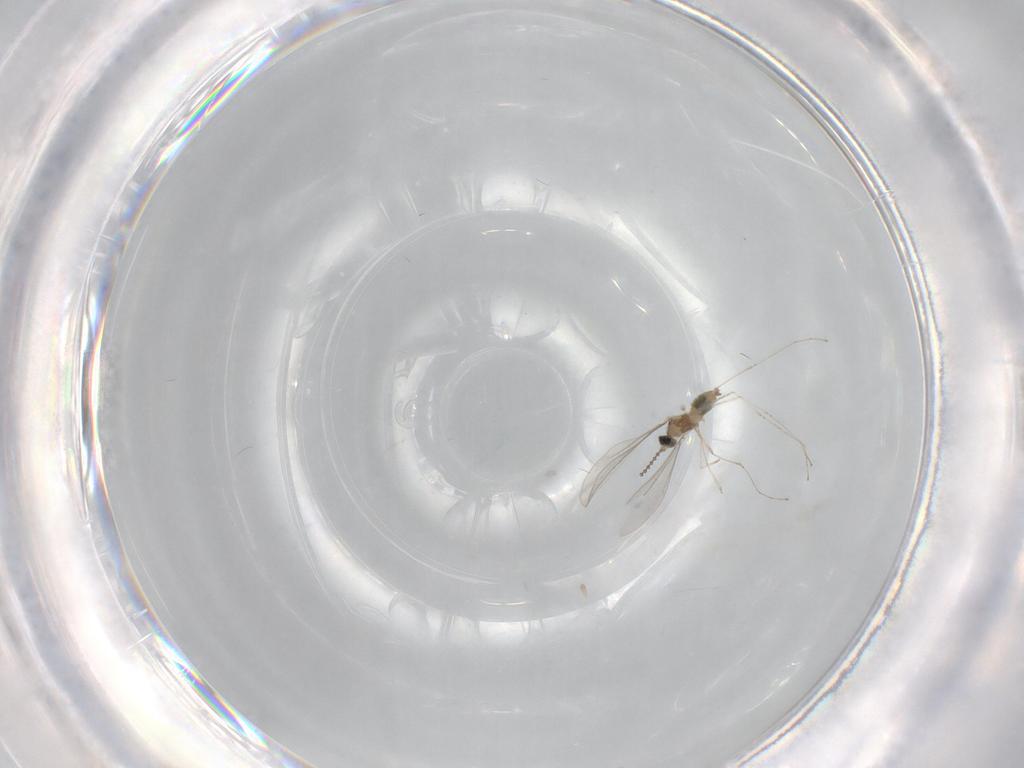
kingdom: Animalia
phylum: Arthropoda
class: Insecta
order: Diptera
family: Cecidomyiidae
